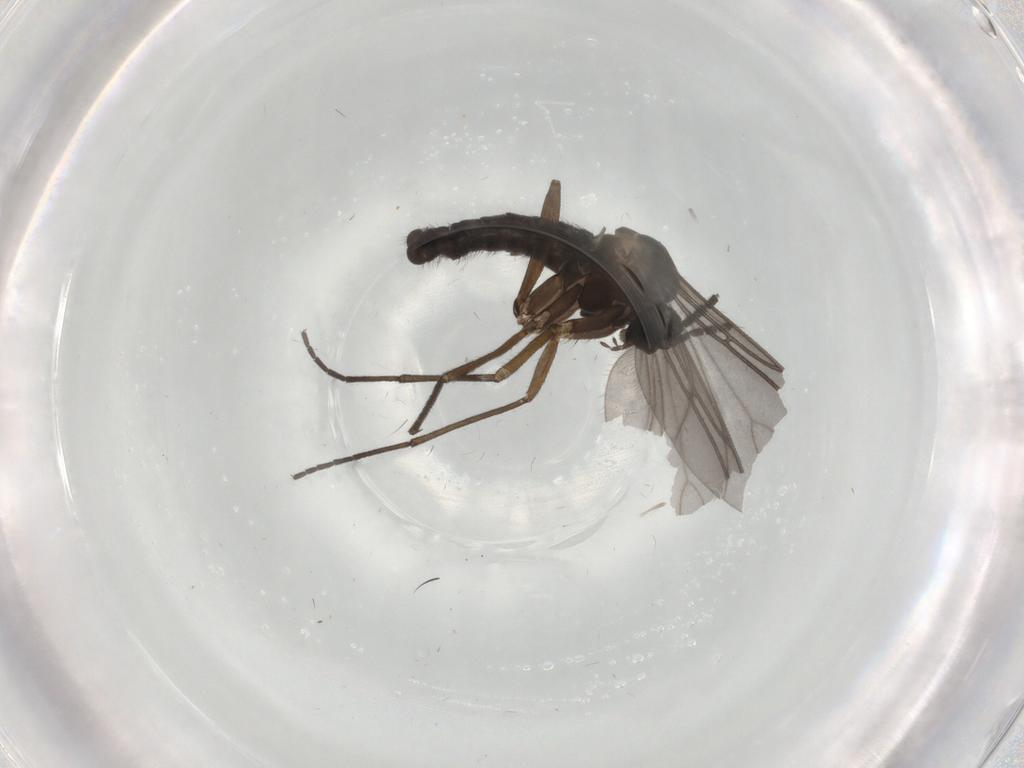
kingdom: Animalia
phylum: Arthropoda
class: Insecta
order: Diptera
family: Sciaridae
